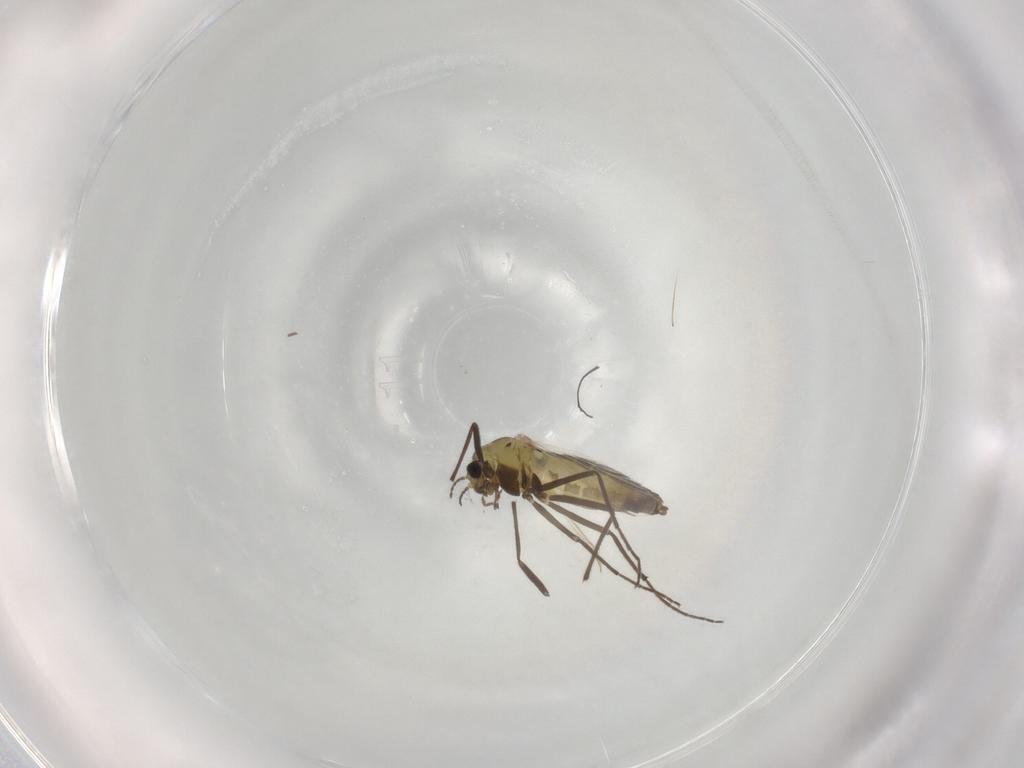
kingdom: Animalia
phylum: Arthropoda
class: Insecta
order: Diptera
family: Chironomidae
